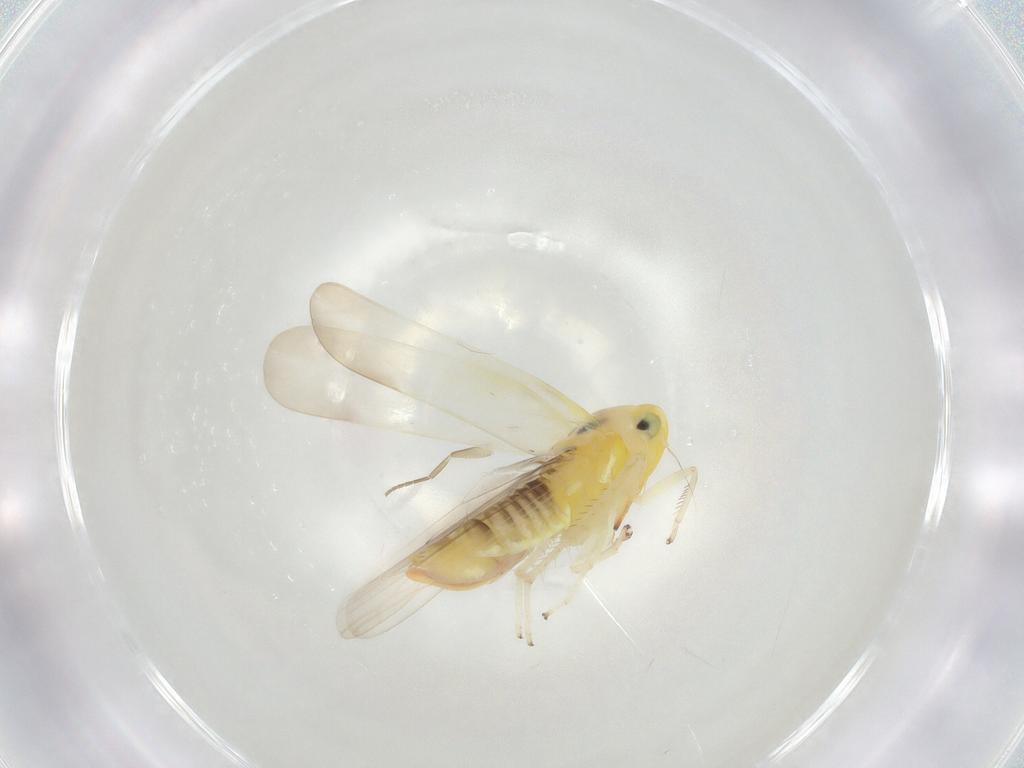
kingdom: Animalia
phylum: Arthropoda
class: Insecta
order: Hemiptera
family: Cicadellidae
